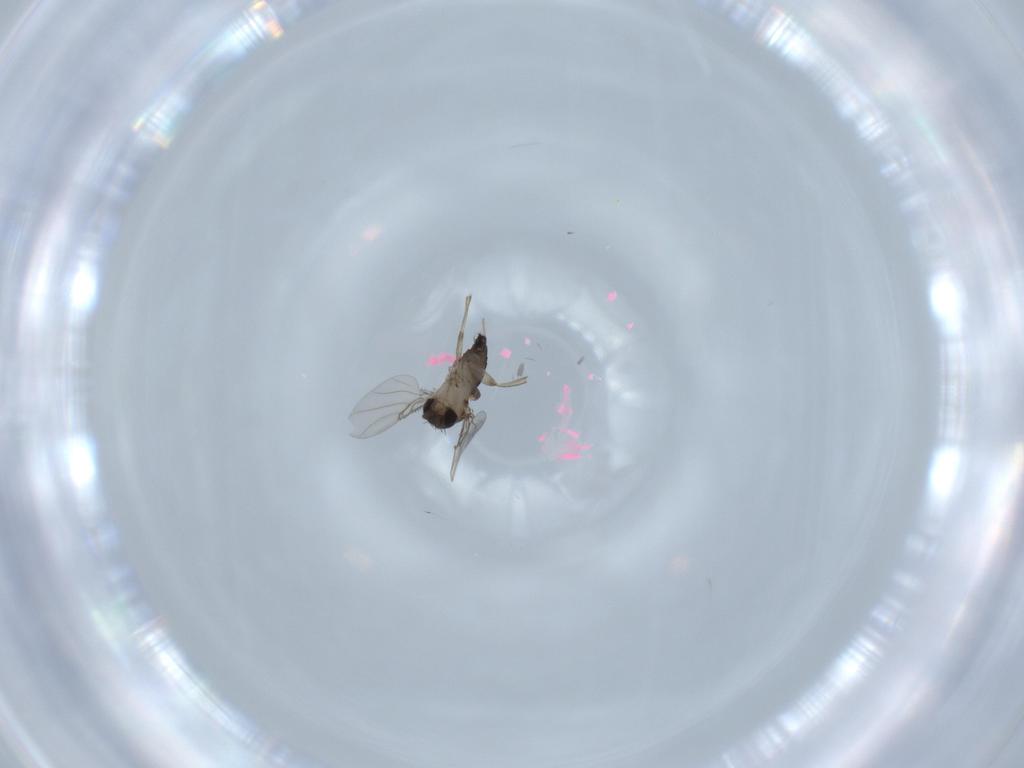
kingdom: Animalia
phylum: Arthropoda
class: Insecta
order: Diptera
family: Phoridae
